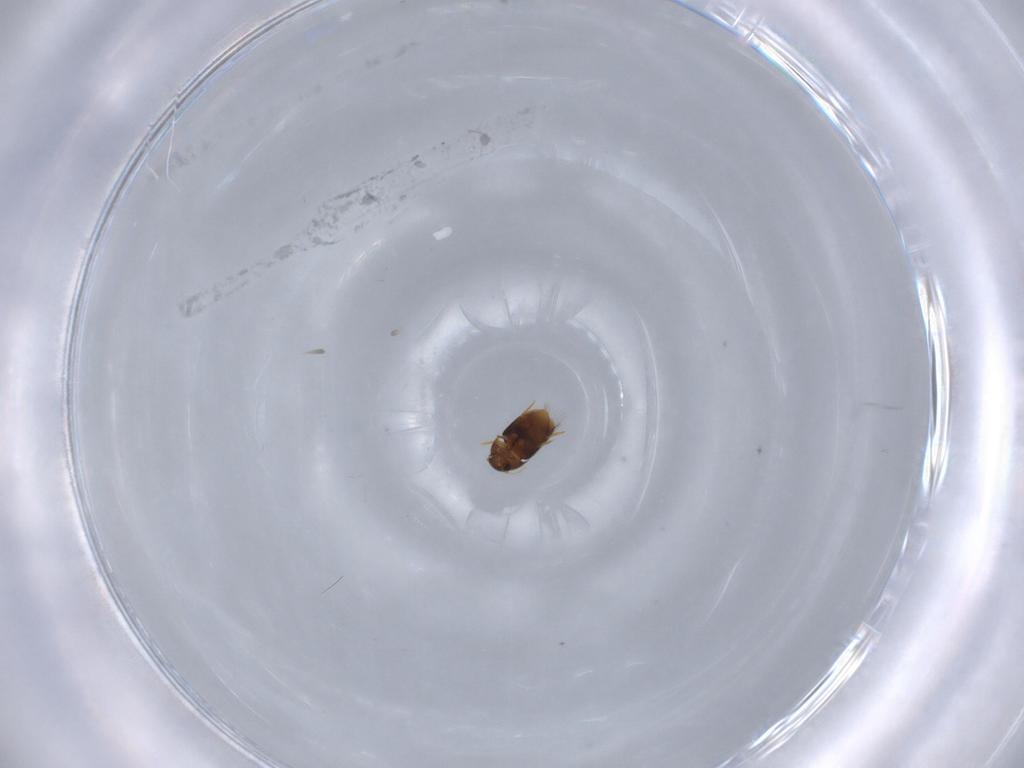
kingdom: Animalia
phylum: Arthropoda
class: Insecta
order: Coleoptera
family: Ptiliidae
